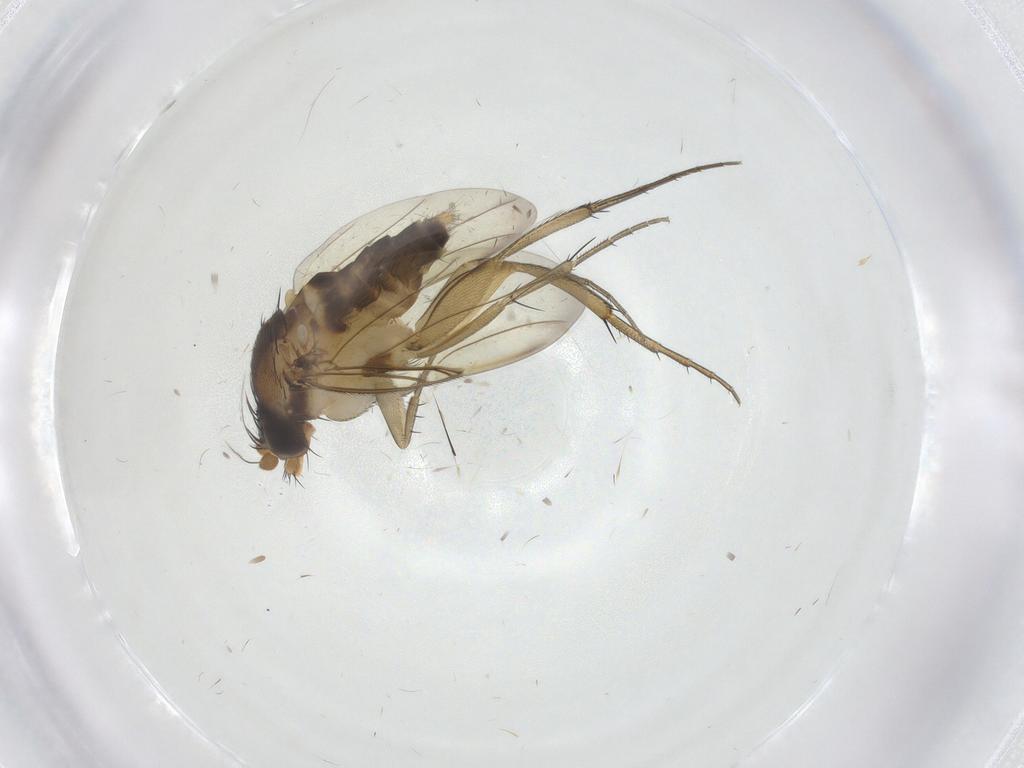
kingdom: Animalia
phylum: Arthropoda
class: Insecta
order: Diptera
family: Phoridae
